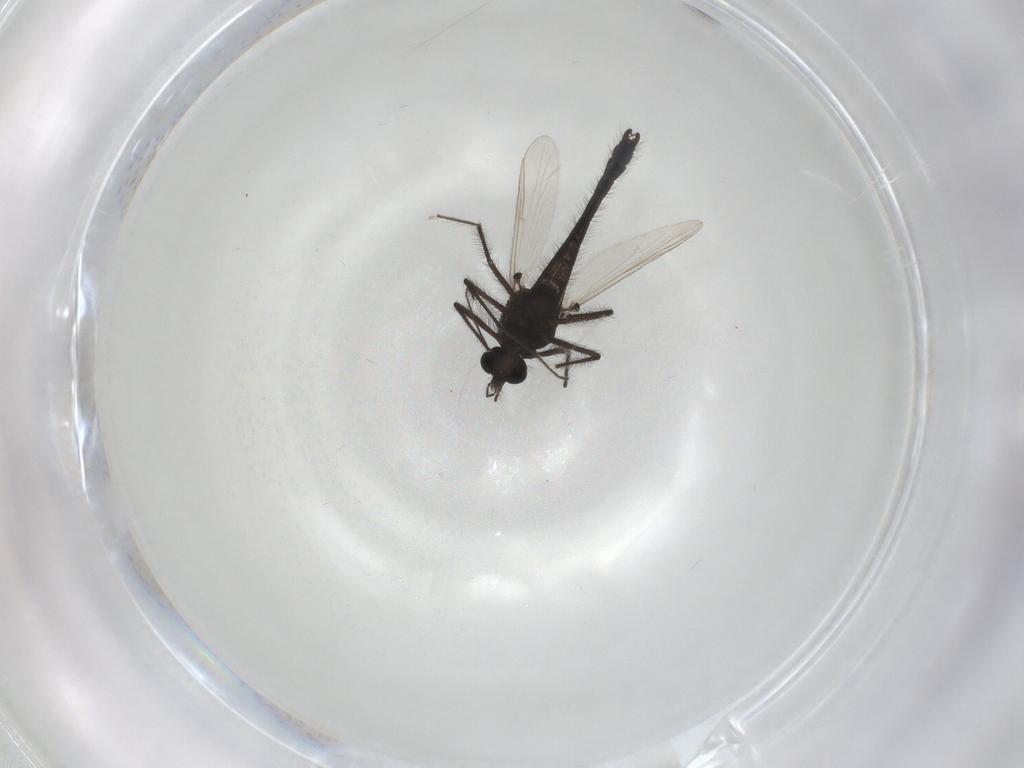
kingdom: Animalia
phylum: Arthropoda
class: Insecta
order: Diptera
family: Chironomidae
